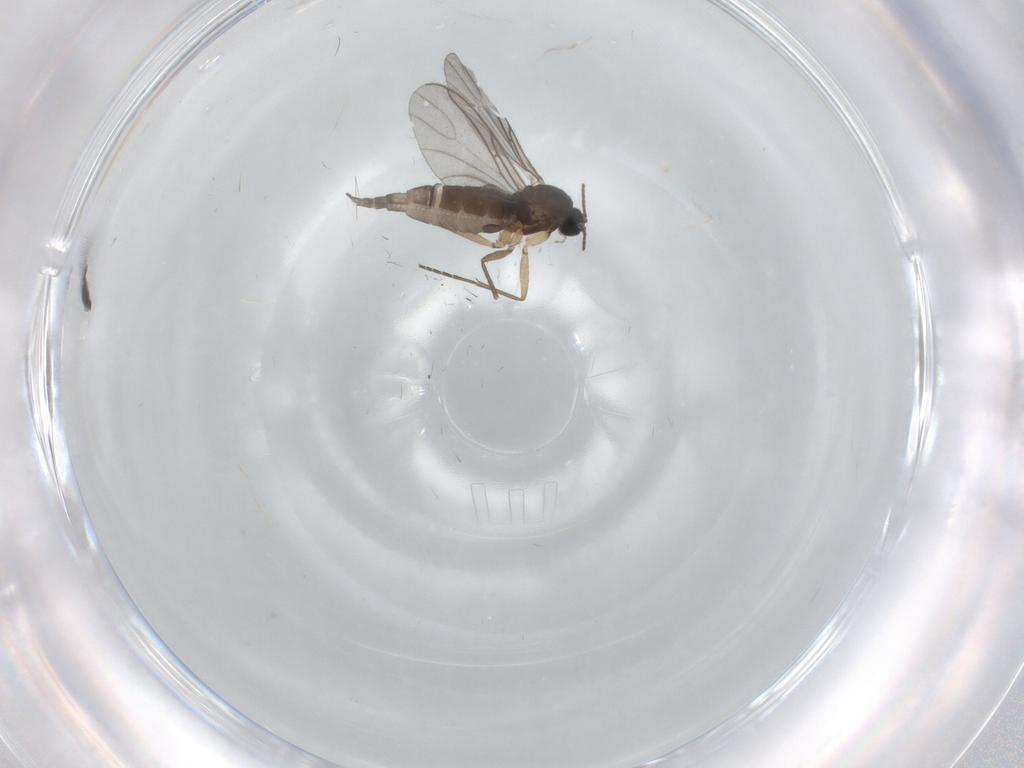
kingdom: Animalia
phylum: Arthropoda
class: Insecta
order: Diptera
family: Sciaridae
